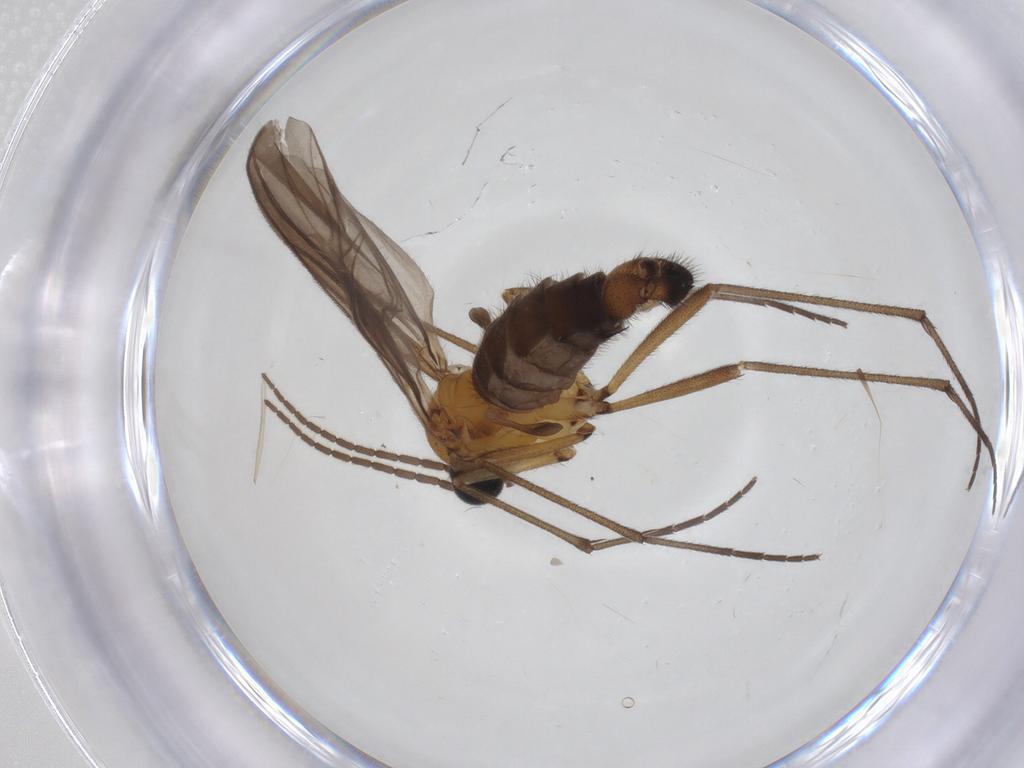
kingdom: Animalia
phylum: Arthropoda
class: Insecta
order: Diptera
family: Sciaridae
